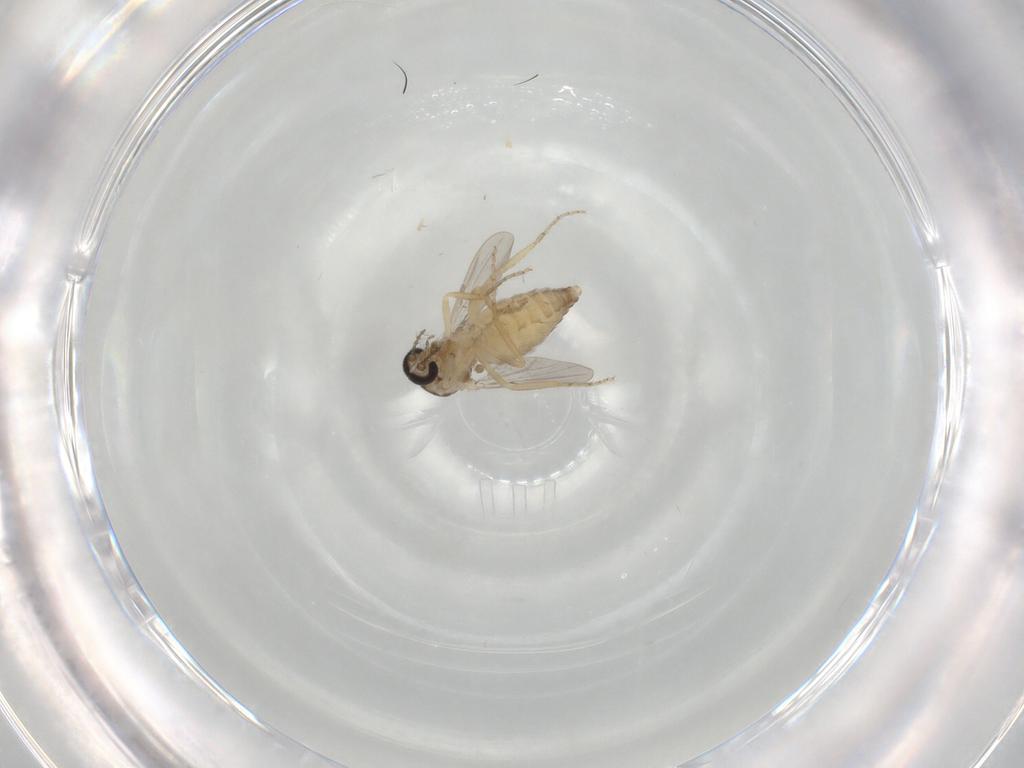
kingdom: Animalia
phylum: Arthropoda
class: Insecta
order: Diptera
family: Ceratopogonidae
